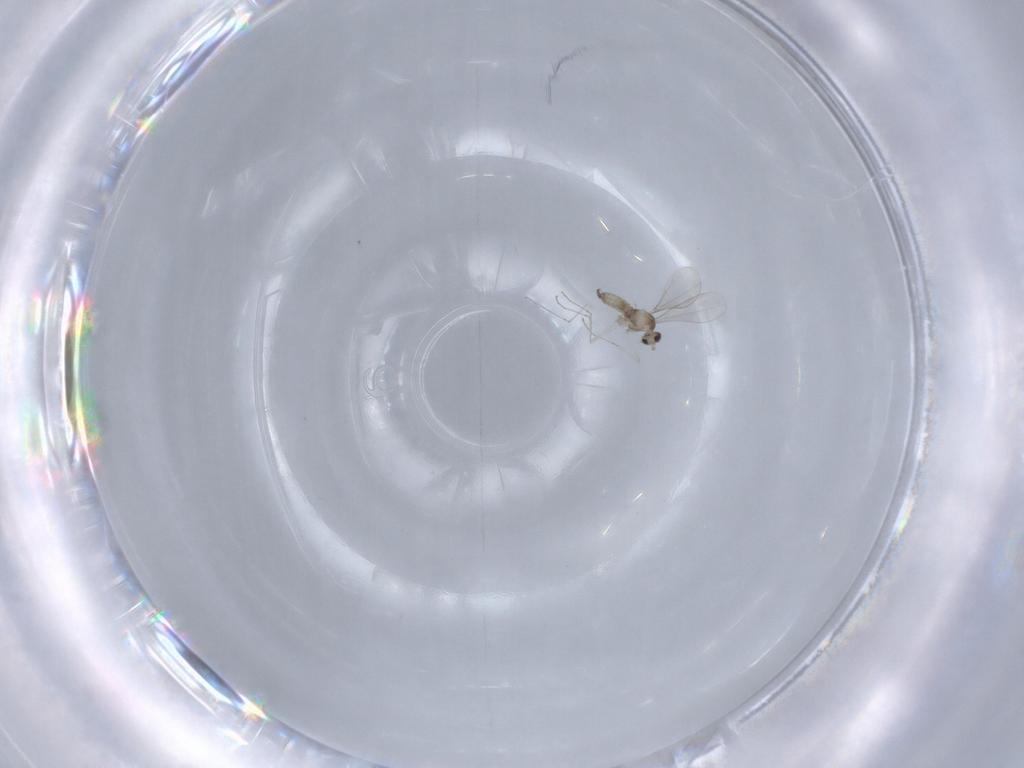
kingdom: Animalia
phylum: Arthropoda
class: Insecta
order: Diptera
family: Cecidomyiidae
